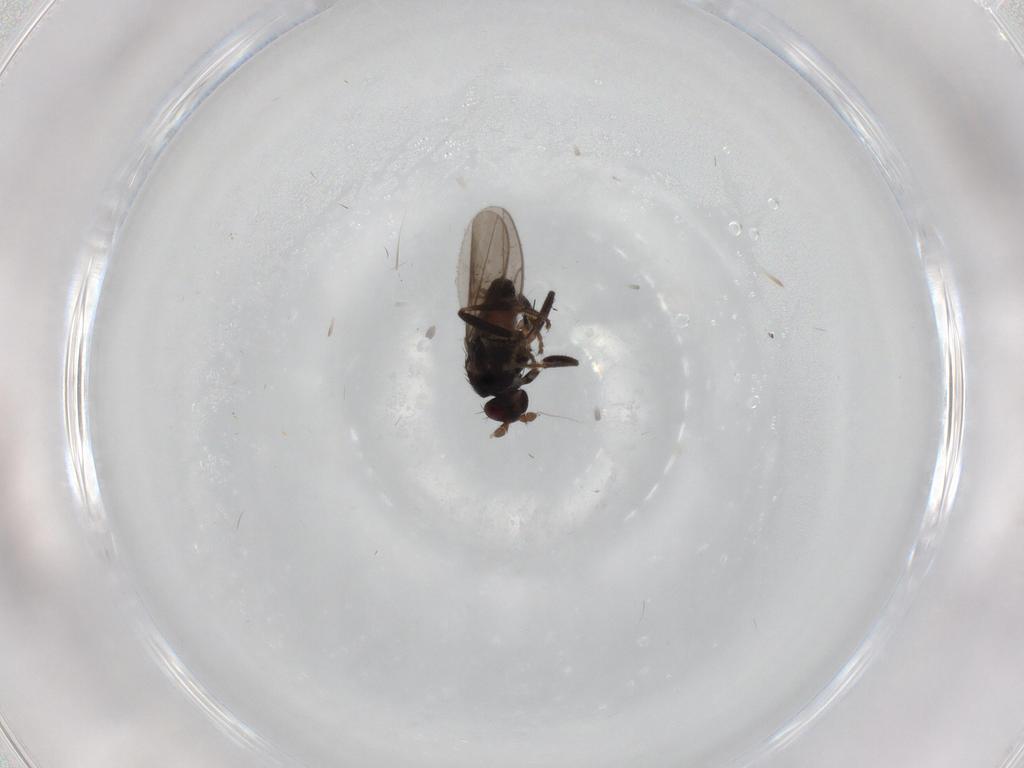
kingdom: Animalia
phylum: Arthropoda
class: Insecta
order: Diptera
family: Sphaeroceridae
